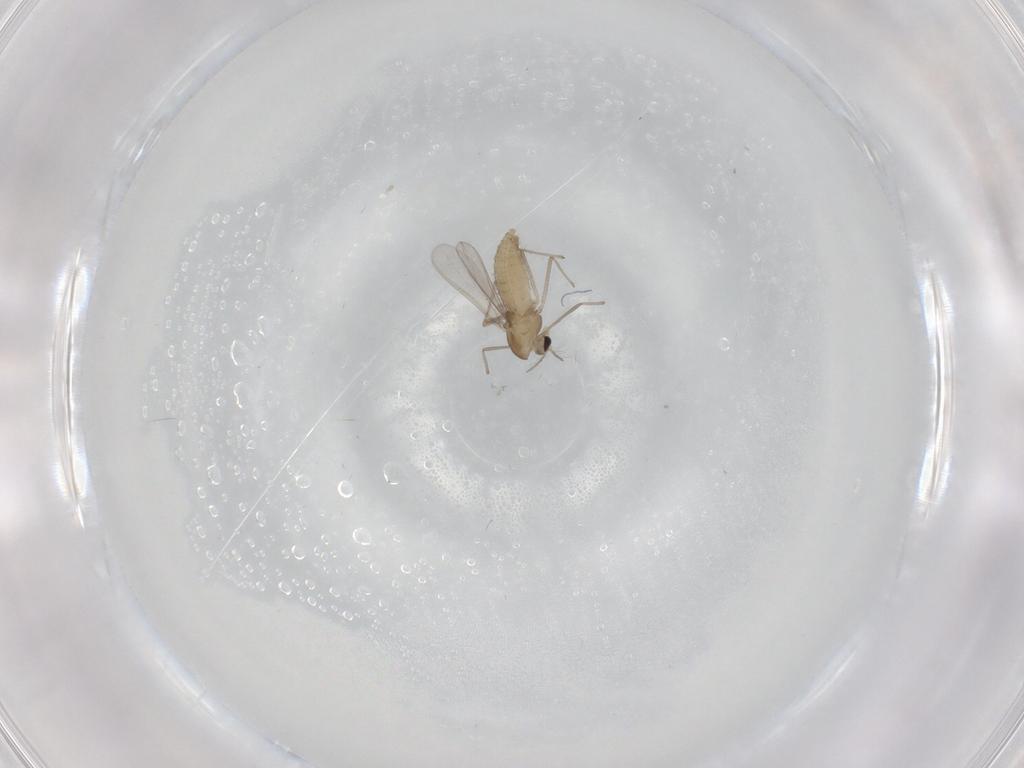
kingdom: Animalia
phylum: Arthropoda
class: Insecta
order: Diptera
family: Chironomidae
